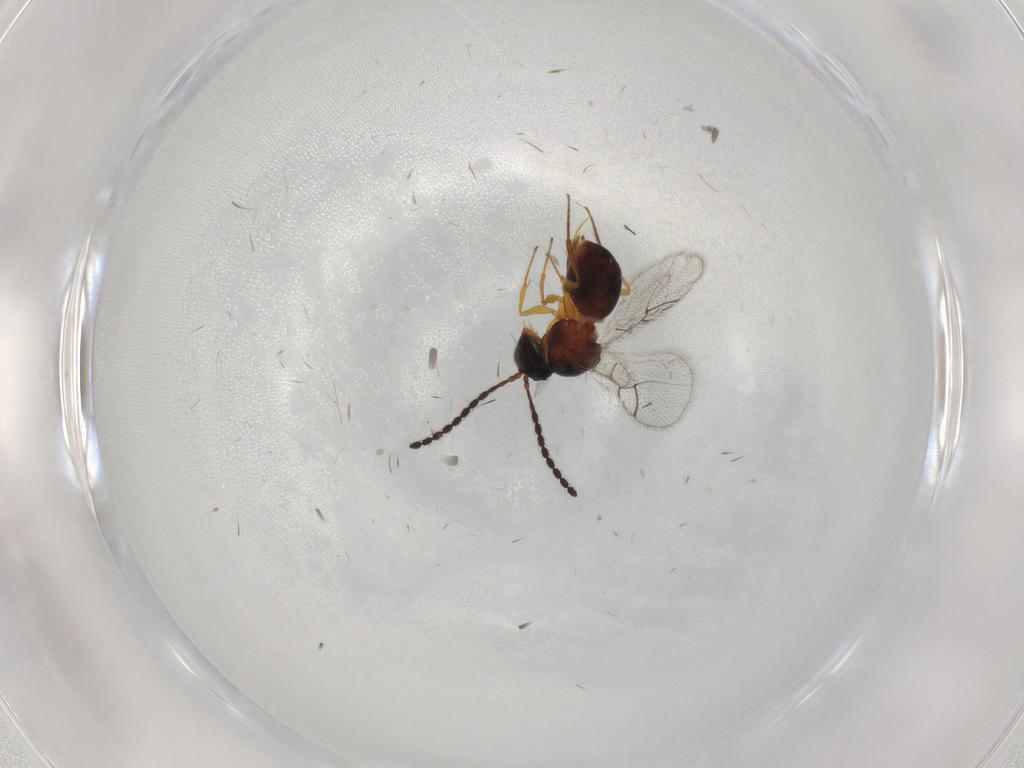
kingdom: Animalia
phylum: Arthropoda
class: Insecta
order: Hymenoptera
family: Figitidae
